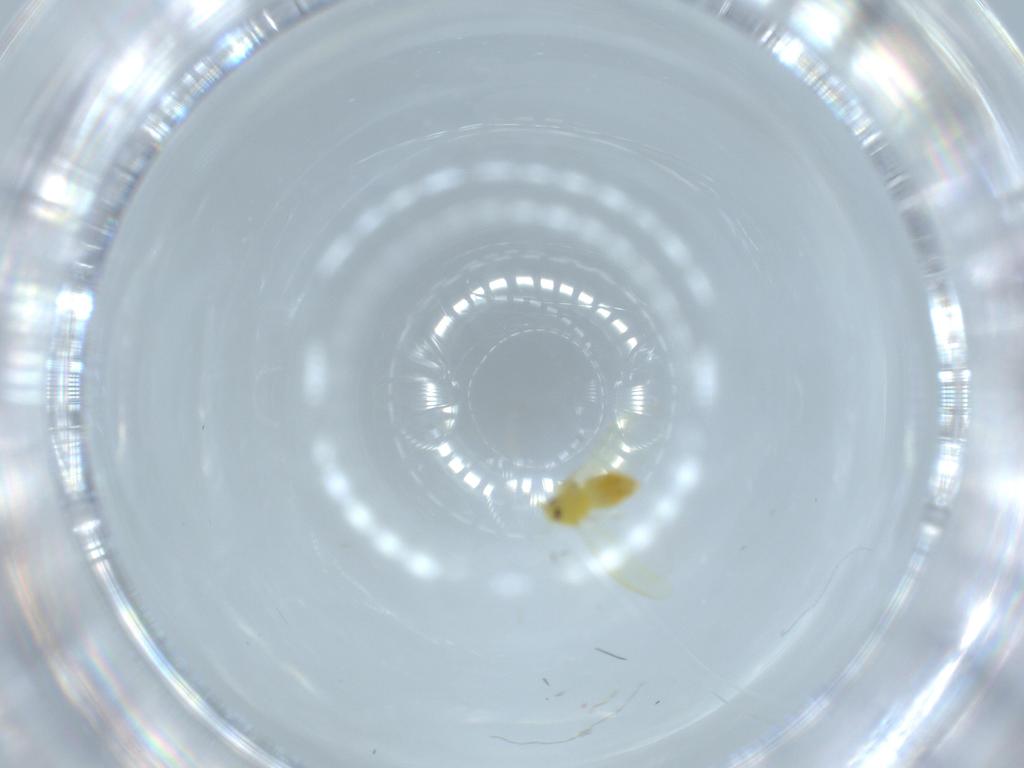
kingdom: Animalia
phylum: Arthropoda
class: Insecta
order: Hemiptera
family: Aleyrodidae
